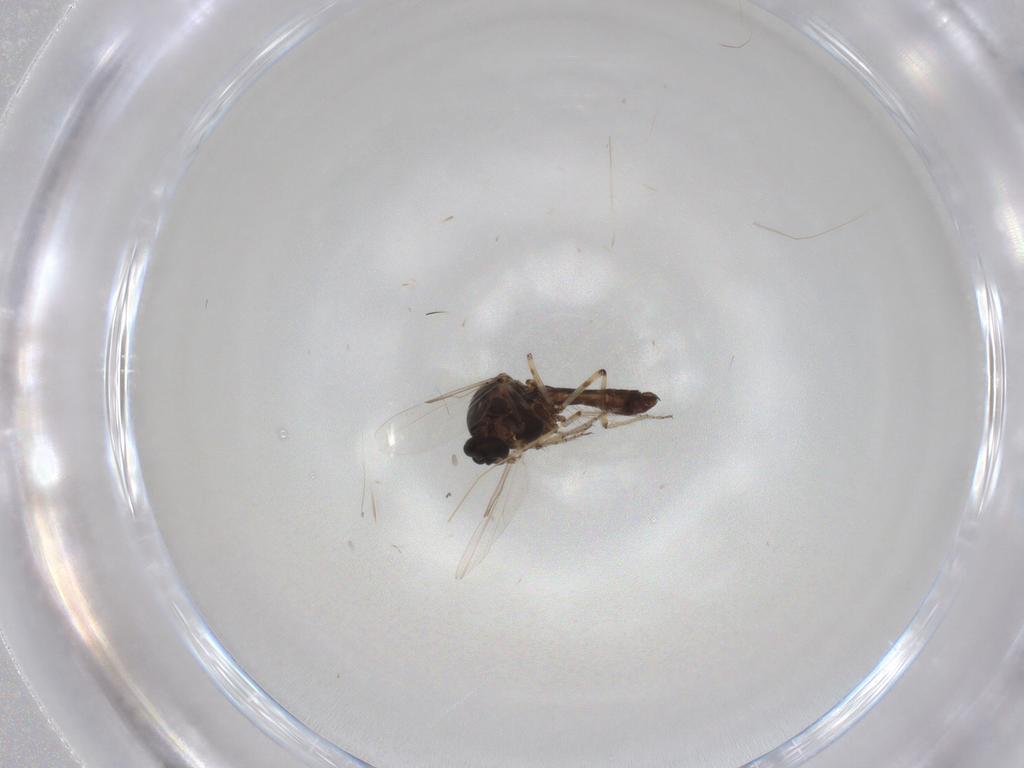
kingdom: Animalia
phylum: Arthropoda
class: Insecta
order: Diptera
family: Ceratopogonidae
